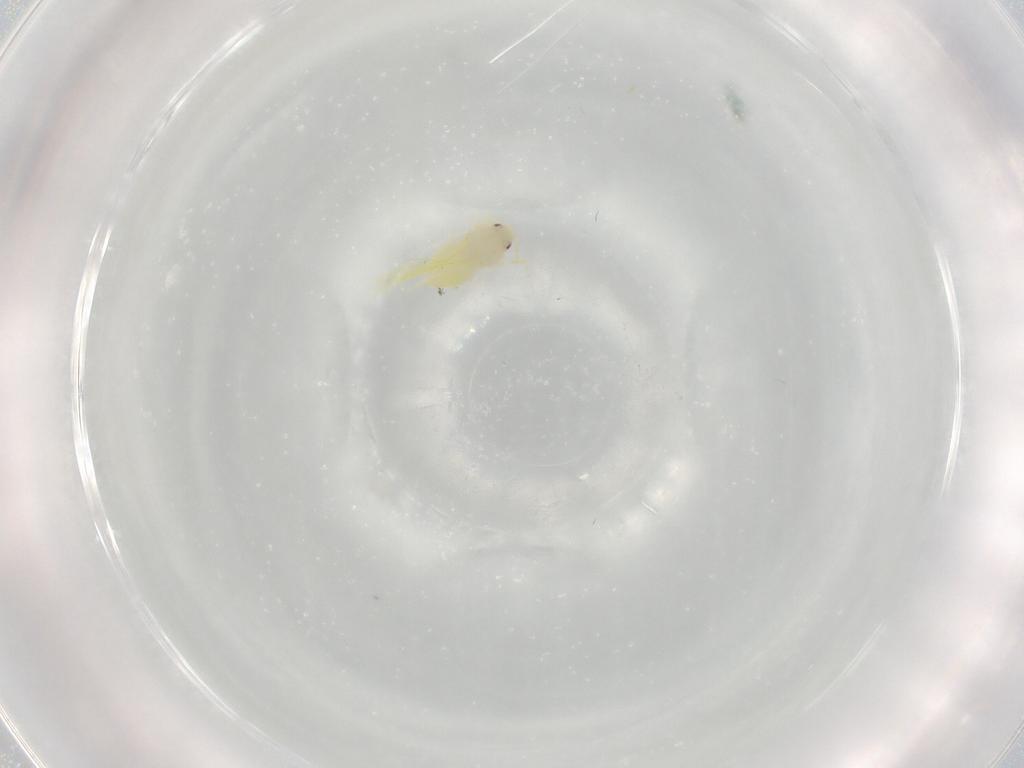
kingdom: Animalia
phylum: Arthropoda
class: Insecta
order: Hemiptera
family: Aleyrodidae
